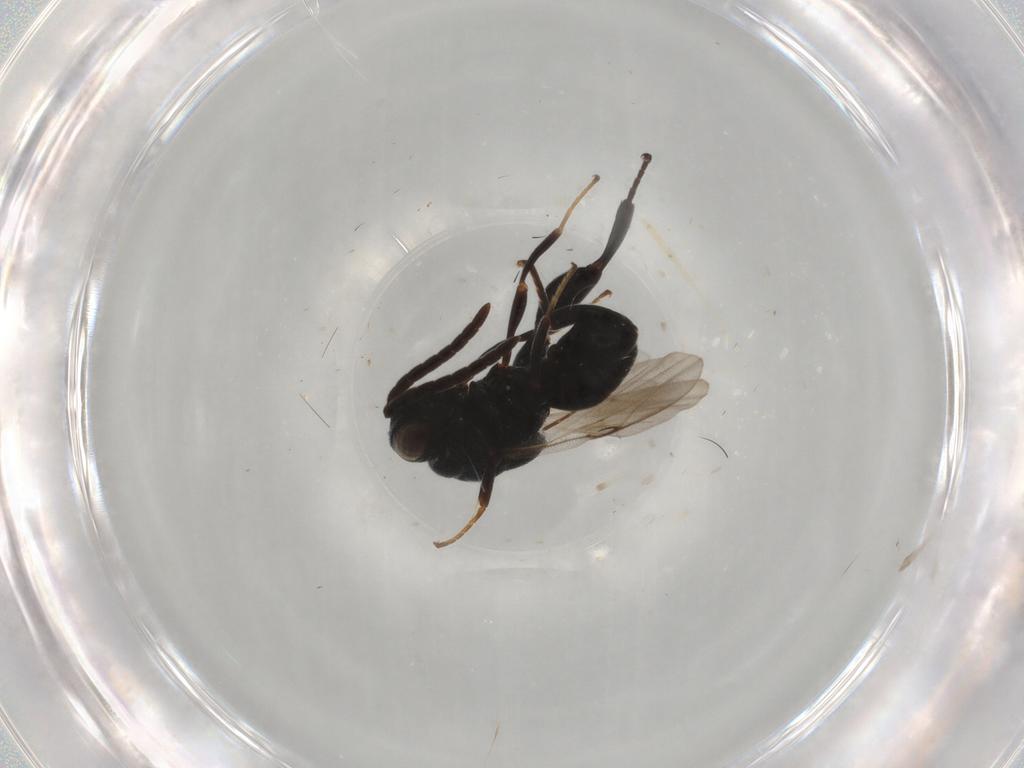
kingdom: Animalia
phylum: Arthropoda
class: Insecta
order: Hymenoptera
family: Chalcididae
